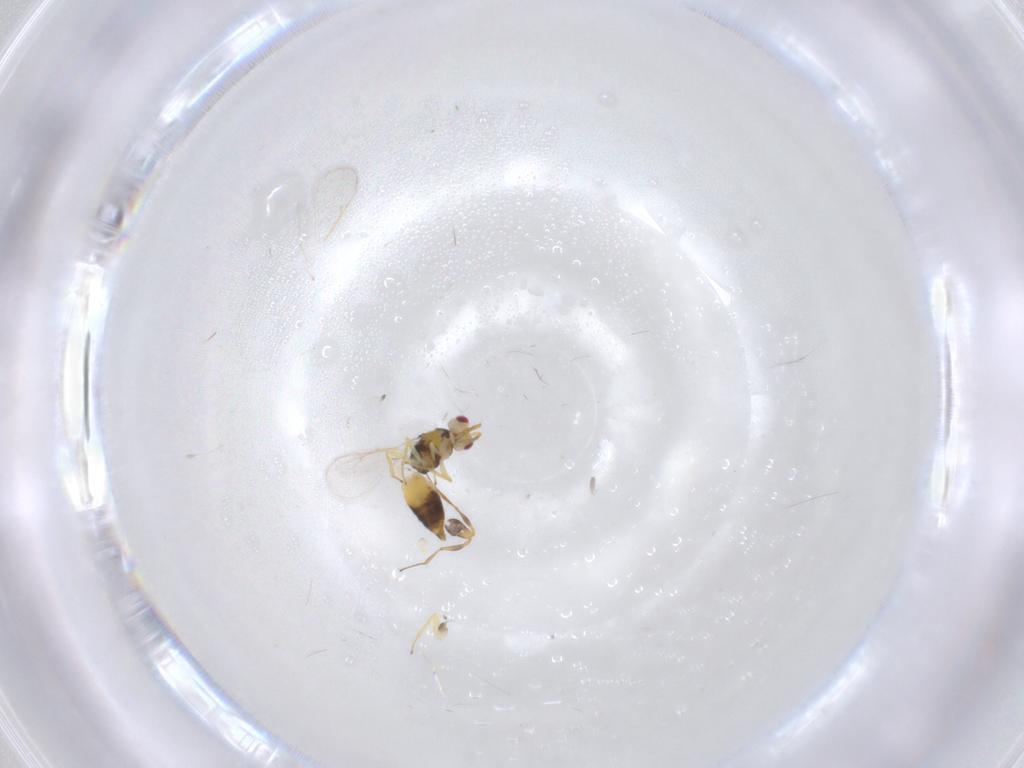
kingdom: Animalia
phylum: Arthropoda
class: Insecta
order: Hymenoptera
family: Figitidae
